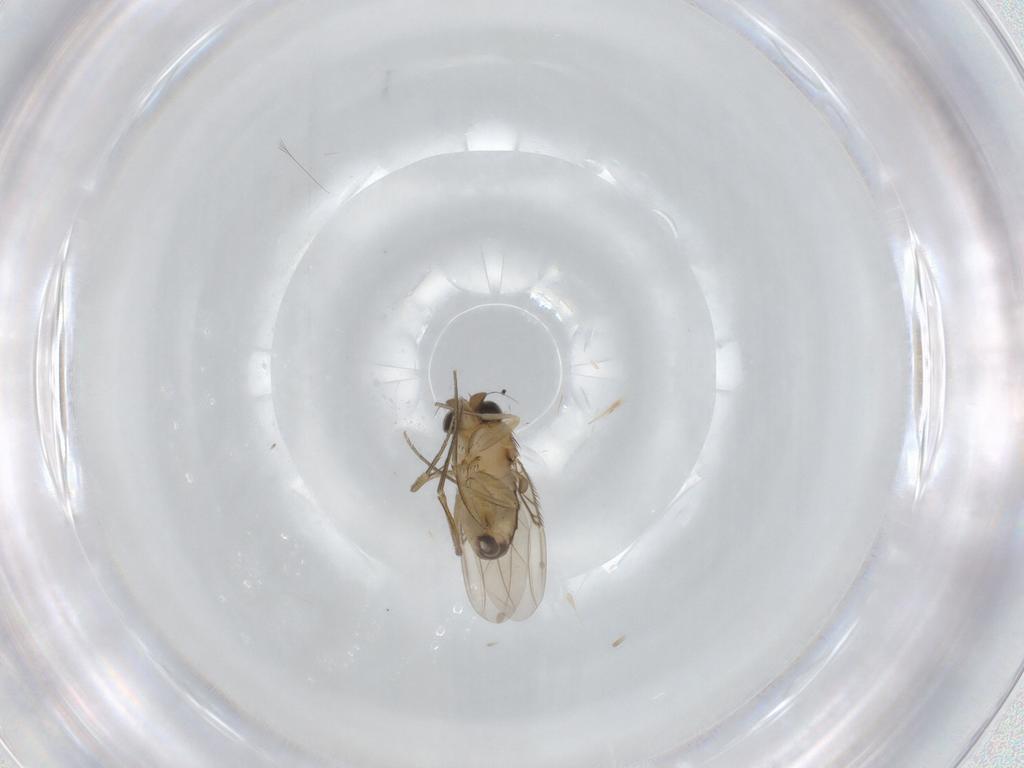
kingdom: Animalia
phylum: Arthropoda
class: Insecta
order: Diptera
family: Phoridae
